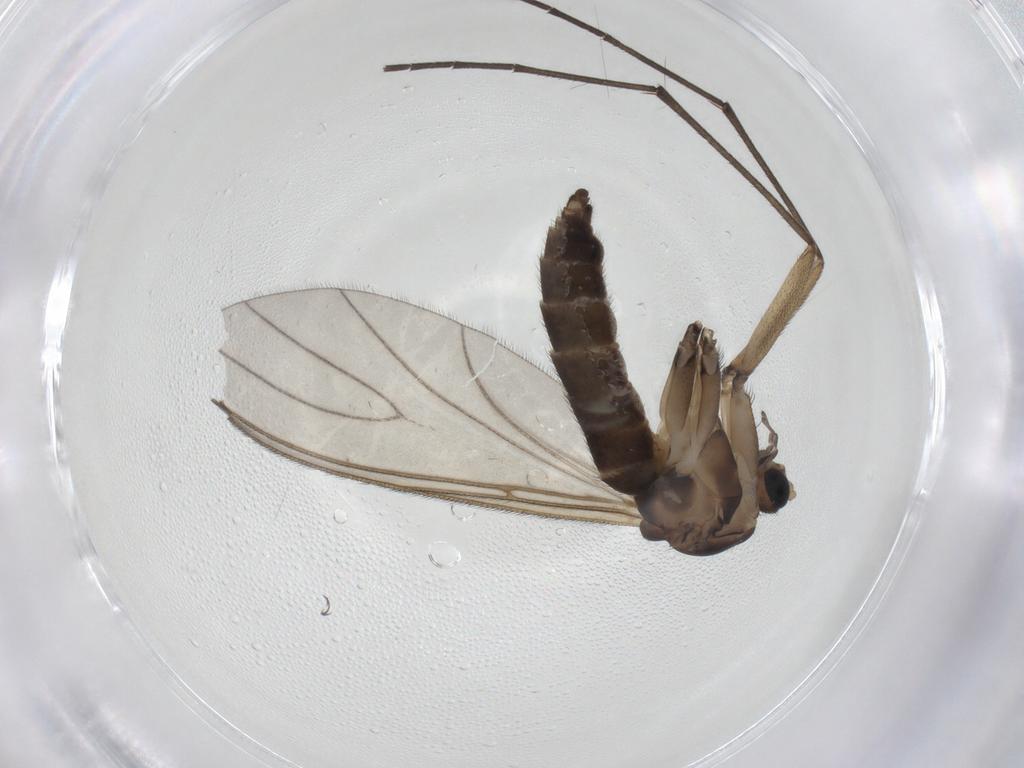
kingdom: Animalia
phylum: Arthropoda
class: Insecta
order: Diptera
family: Sciaridae
